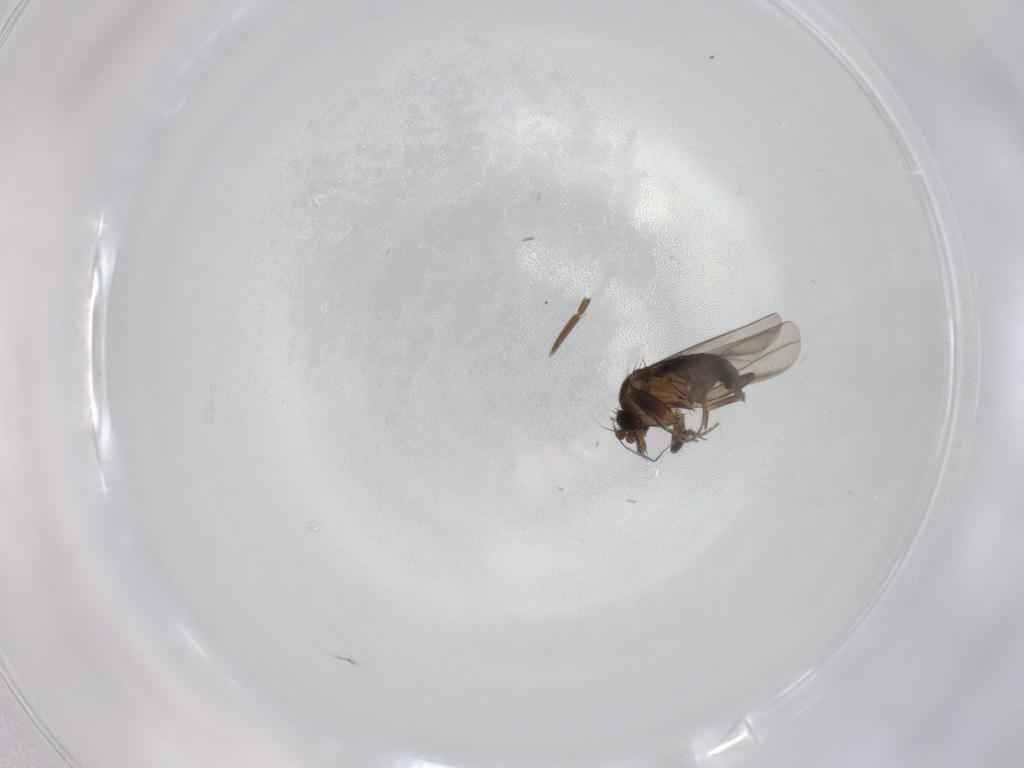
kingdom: Animalia
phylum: Arthropoda
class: Insecta
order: Diptera
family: Phoridae
